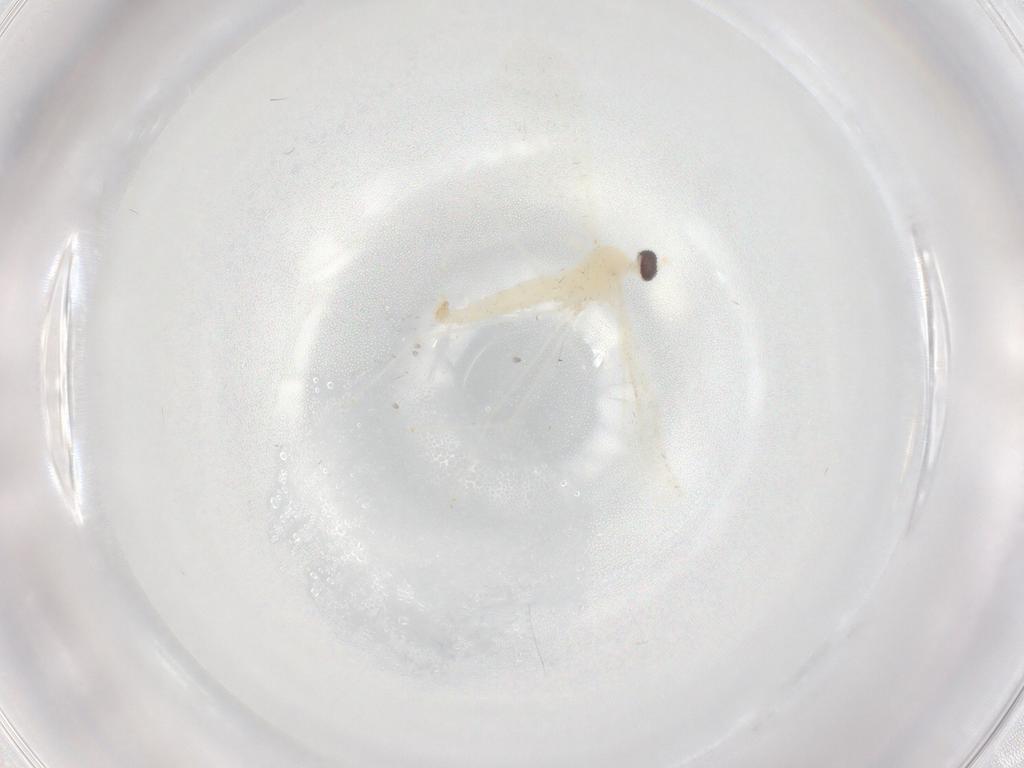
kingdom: Animalia
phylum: Arthropoda
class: Insecta
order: Diptera
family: Cecidomyiidae
